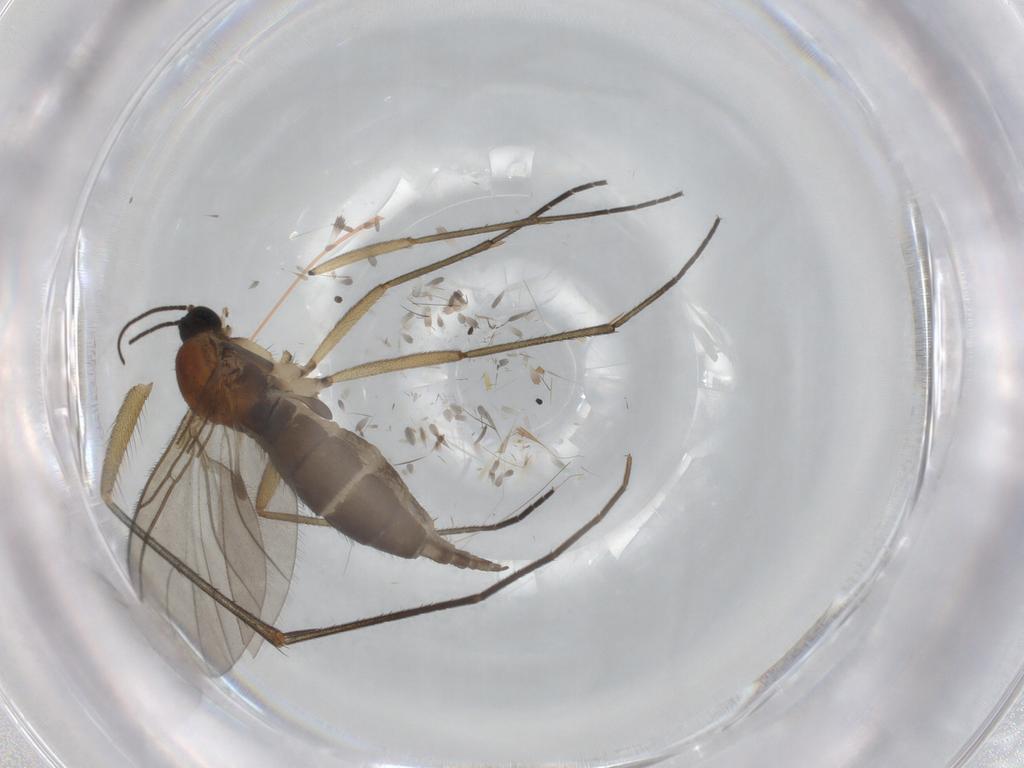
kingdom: Animalia
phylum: Arthropoda
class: Insecta
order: Diptera
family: Sciaridae
